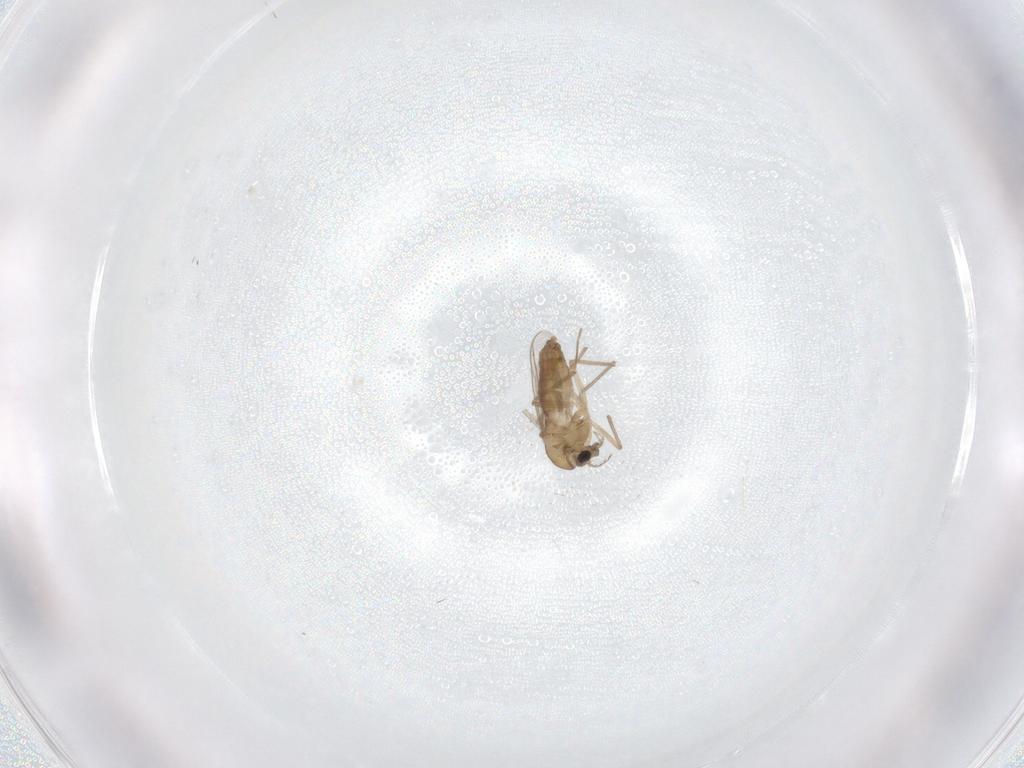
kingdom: Animalia
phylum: Arthropoda
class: Insecta
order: Diptera
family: Chironomidae
